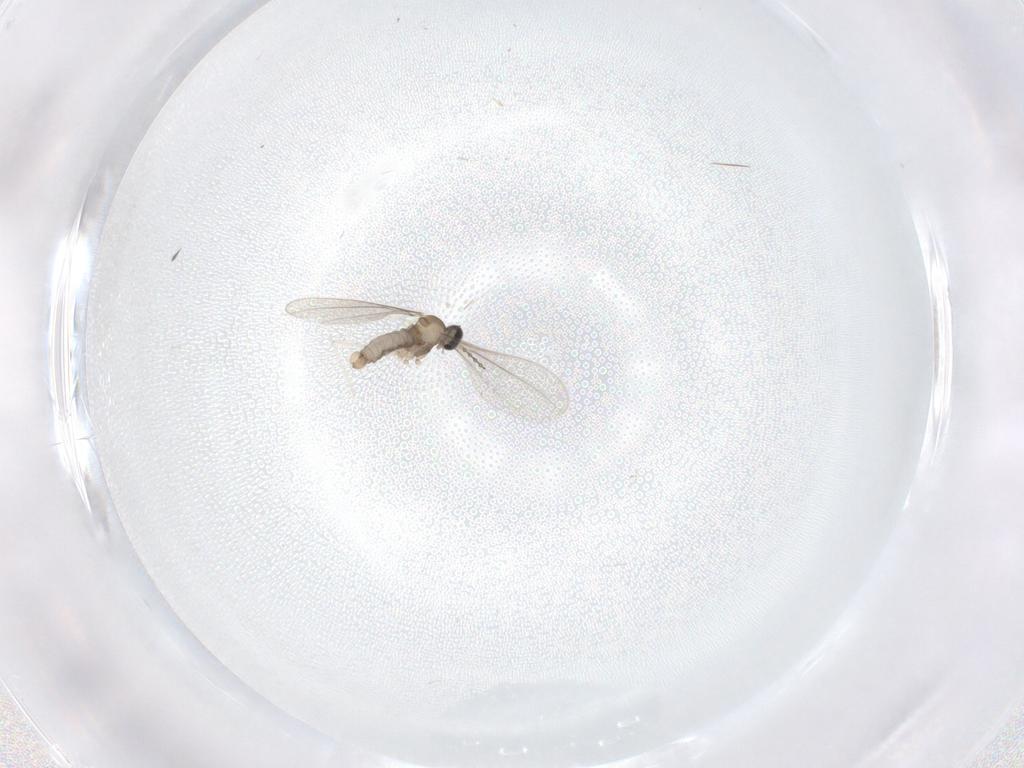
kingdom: Animalia
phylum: Arthropoda
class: Insecta
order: Diptera
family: Cecidomyiidae
